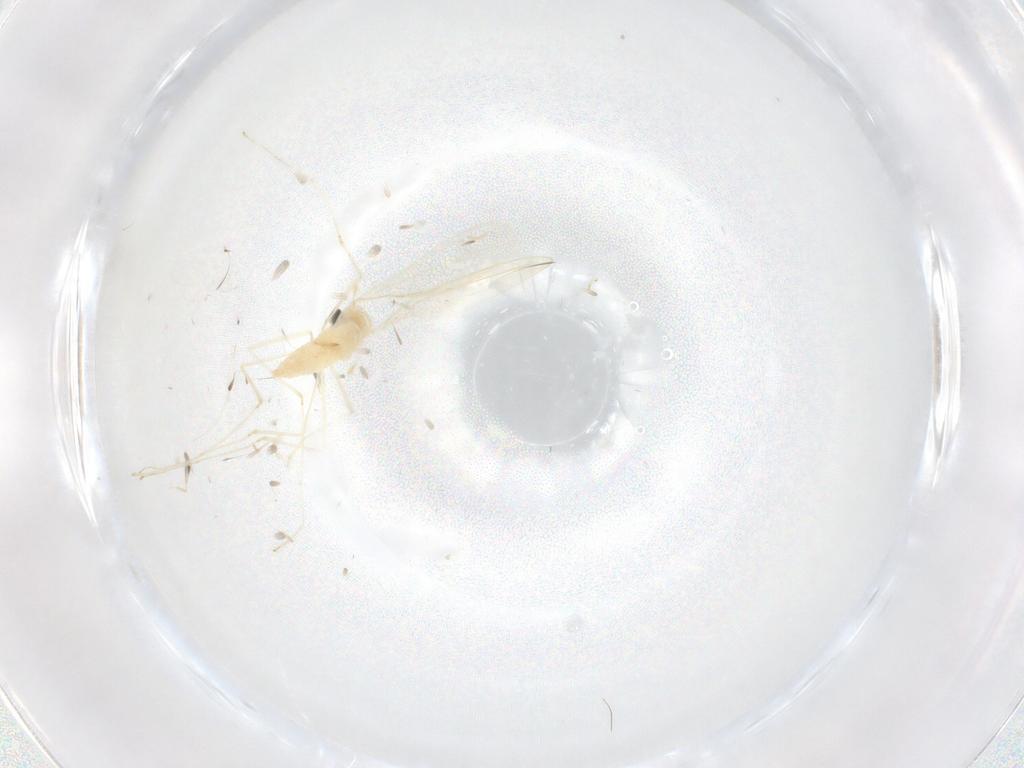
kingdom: Animalia
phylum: Arthropoda
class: Insecta
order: Diptera
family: Cecidomyiidae
